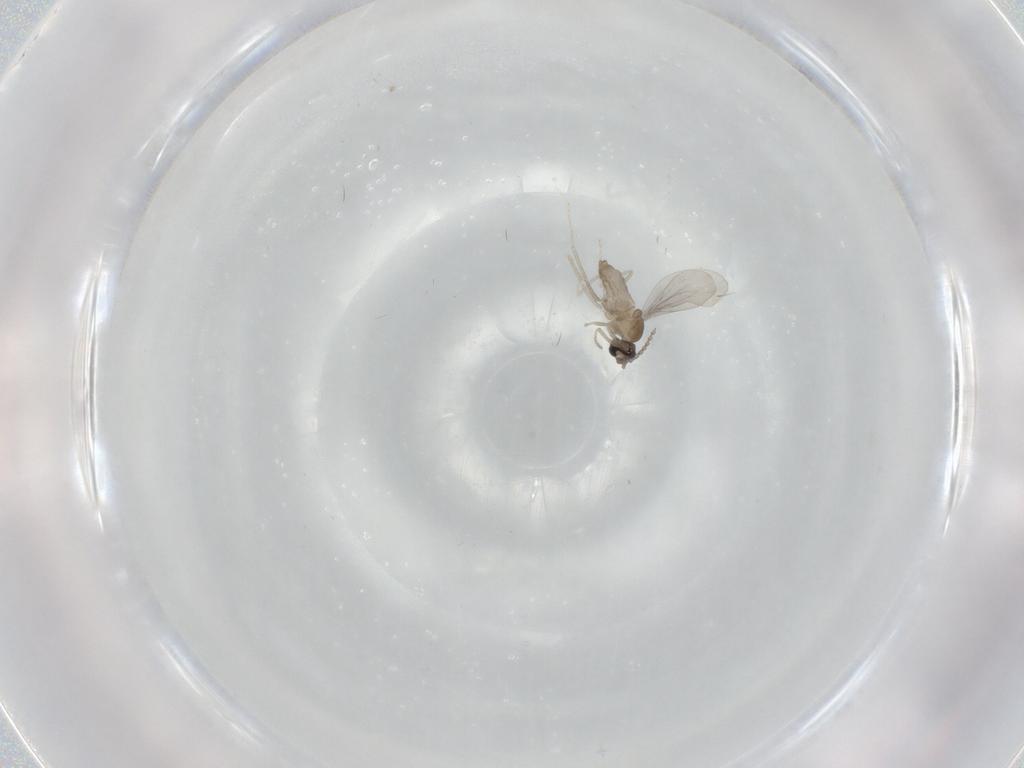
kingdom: Animalia
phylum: Arthropoda
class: Insecta
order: Diptera
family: Cecidomyiidae
